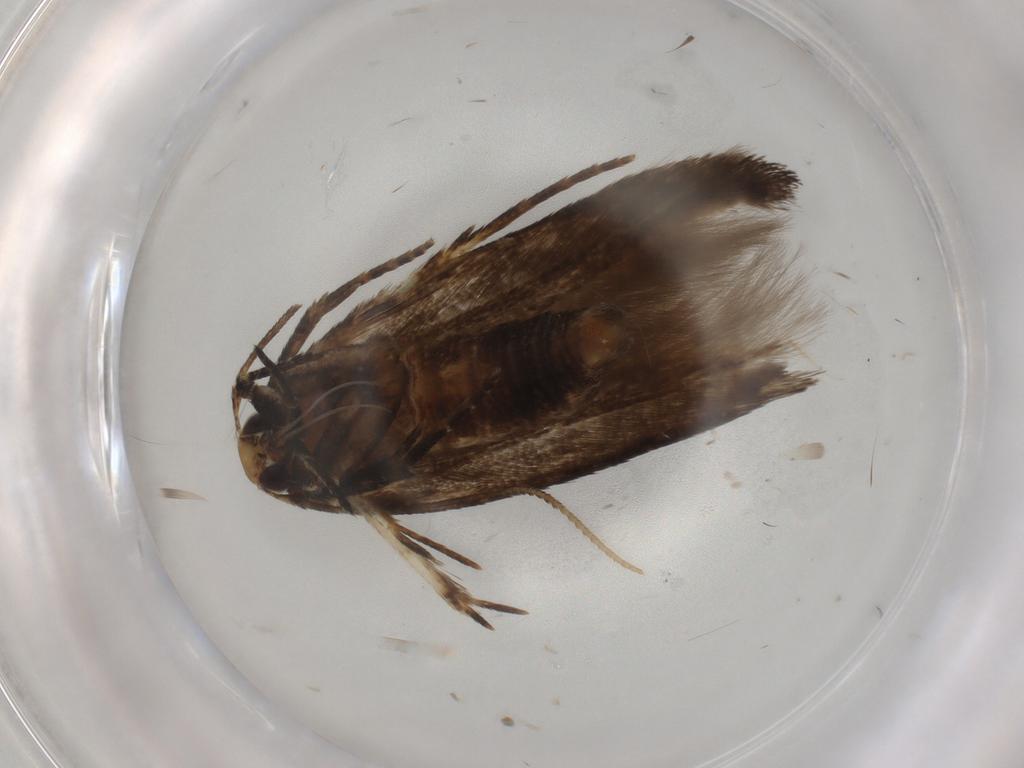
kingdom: Animalia
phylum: Arthropoda
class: Insecta
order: Lepidoptera
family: Cosmopterigidae
